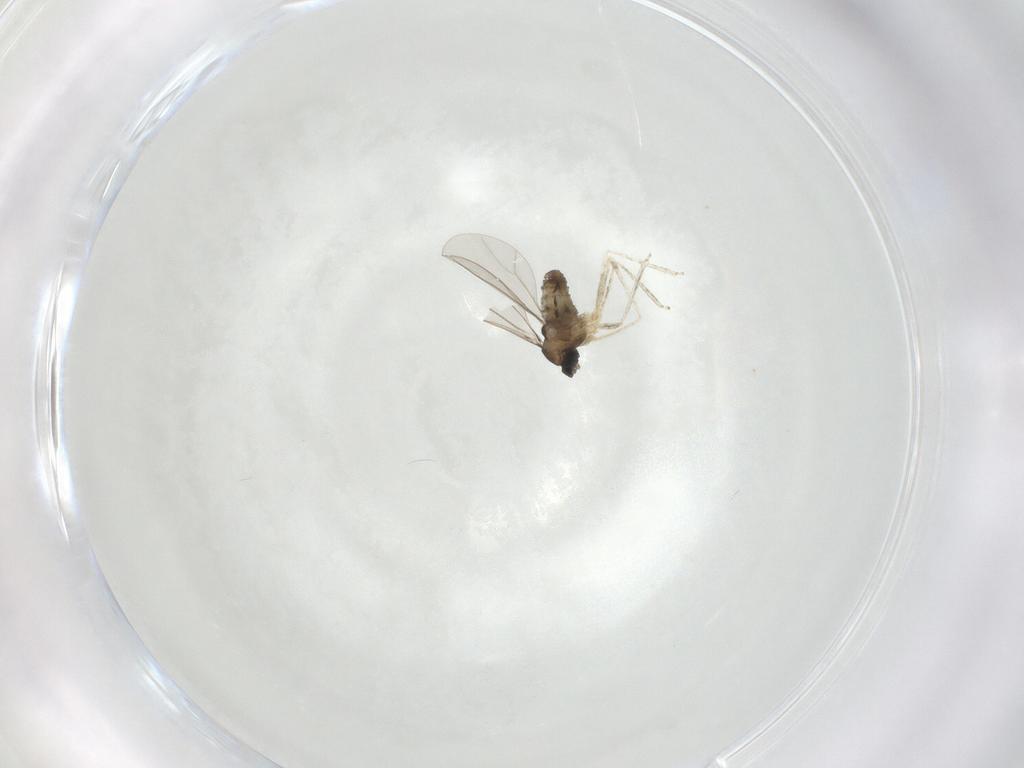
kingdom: Animalia
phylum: Arthropoda
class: Insecta
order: Diptera
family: Cecidomyiidae
